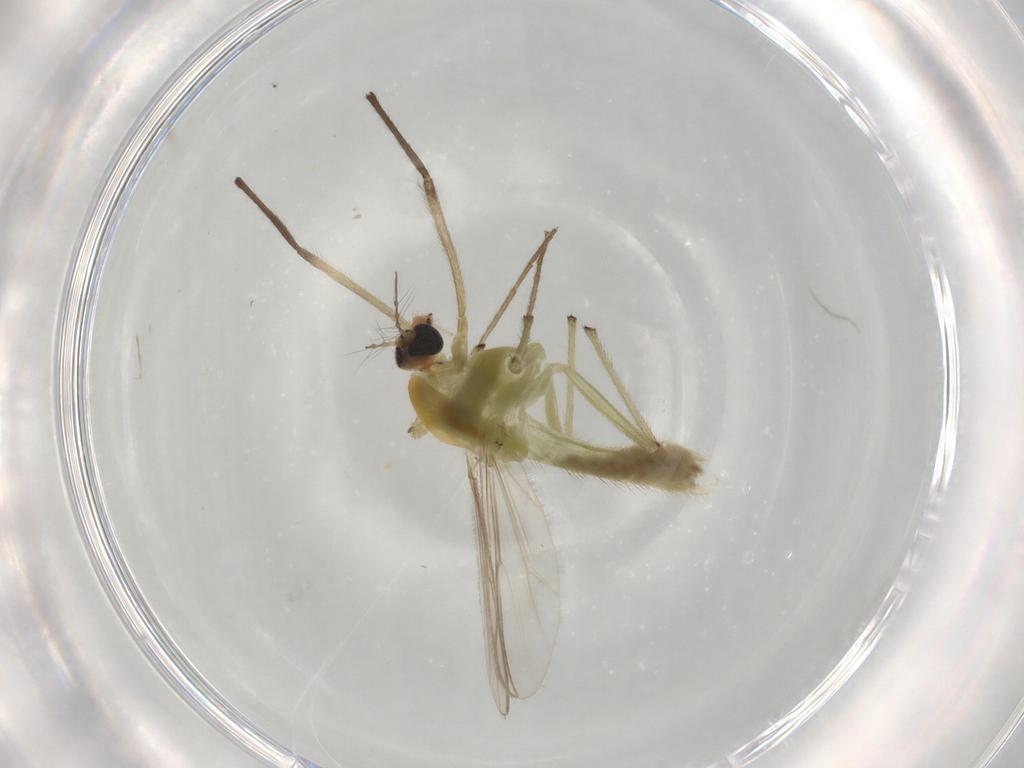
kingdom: Animalia
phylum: Arthropoda
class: Insecta
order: Diptera
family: Chironomidae
